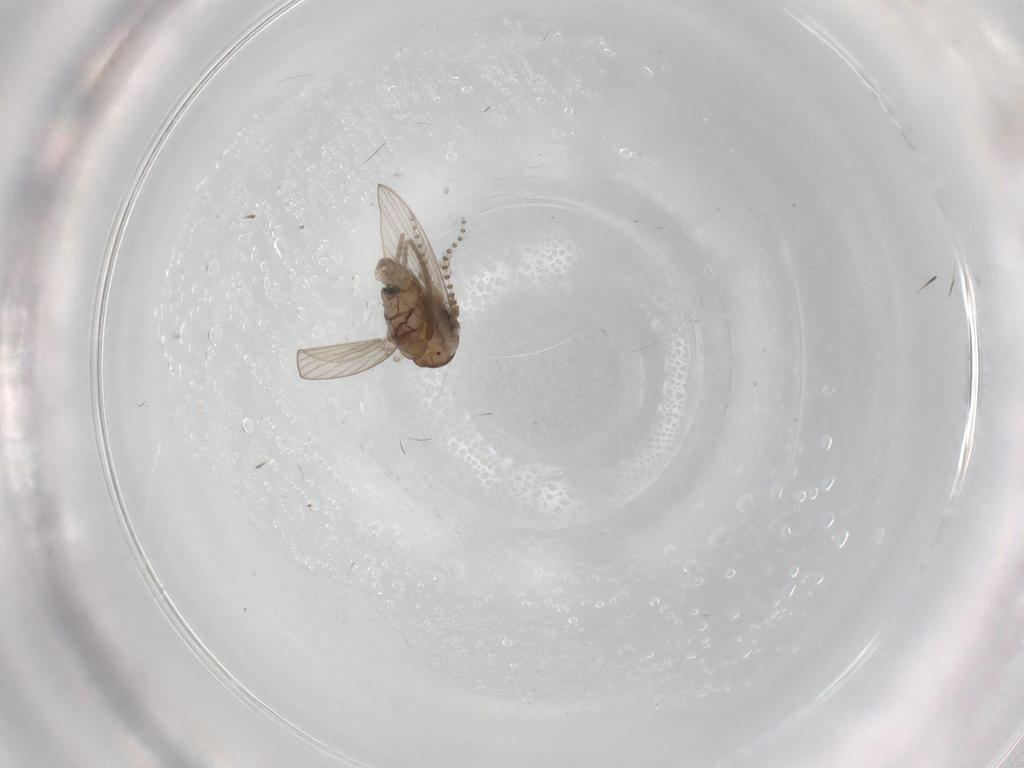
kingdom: Animalia
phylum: Arthropoda
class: Insecta
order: Diptera
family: Psychodidae
